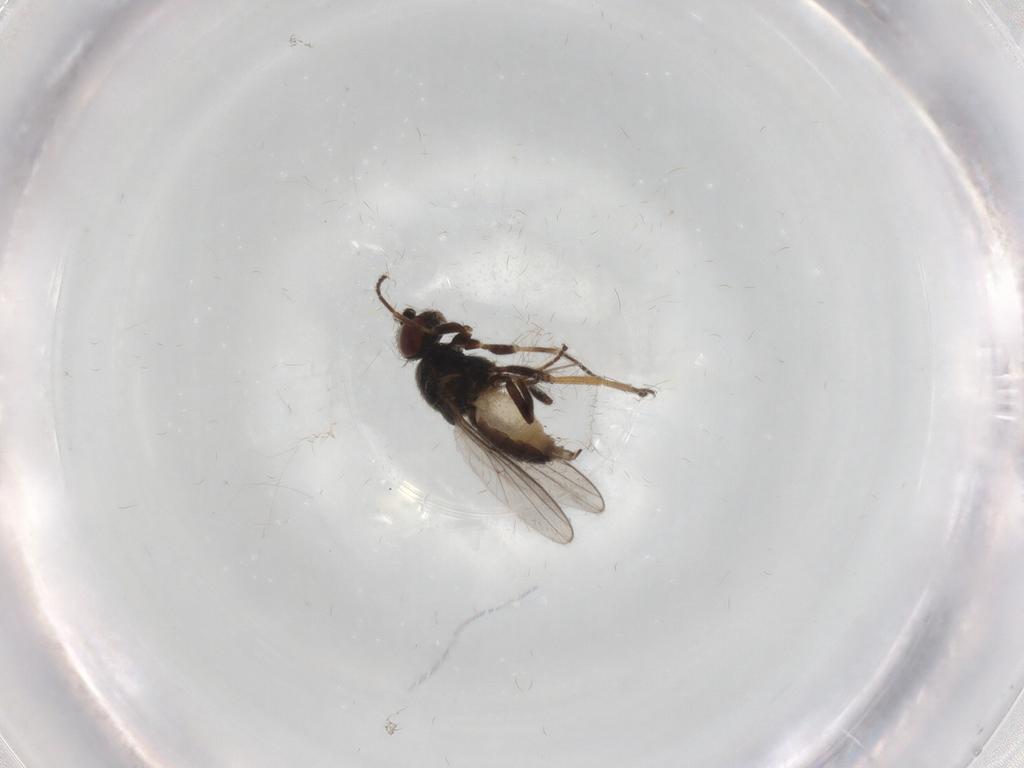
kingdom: Animalia
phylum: Arthropoda
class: Insecta
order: Diptera
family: Chloropidae
